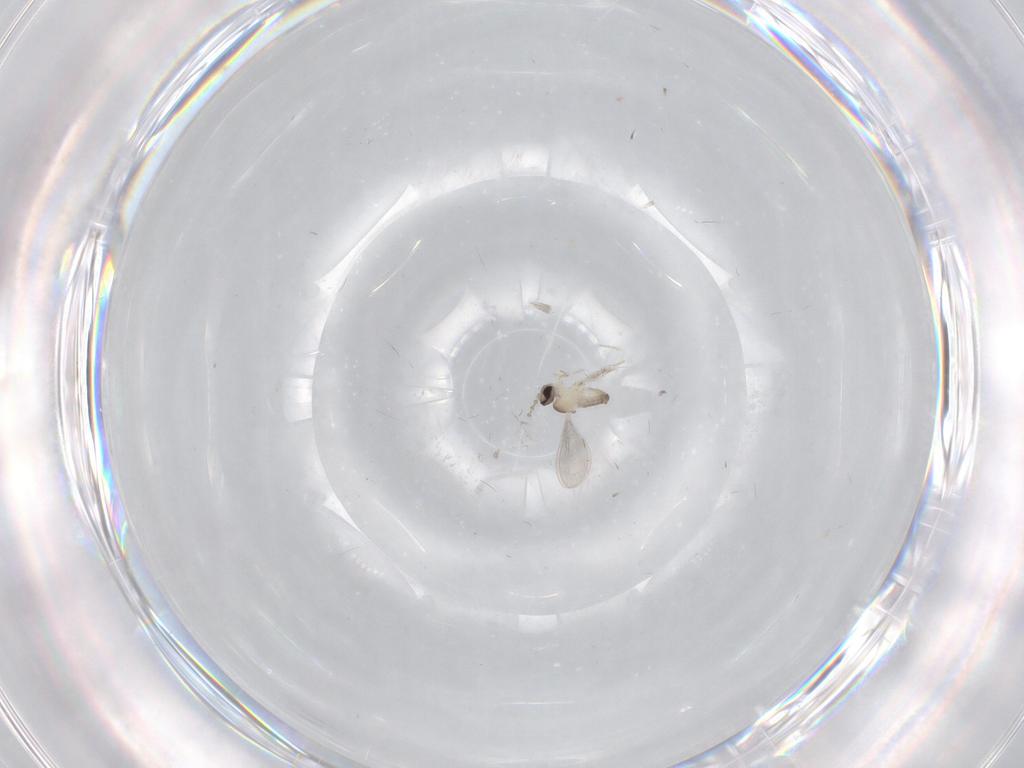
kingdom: Animalia
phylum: Arthropoda
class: Insecta
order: Diptera
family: Cecidomyiidae
